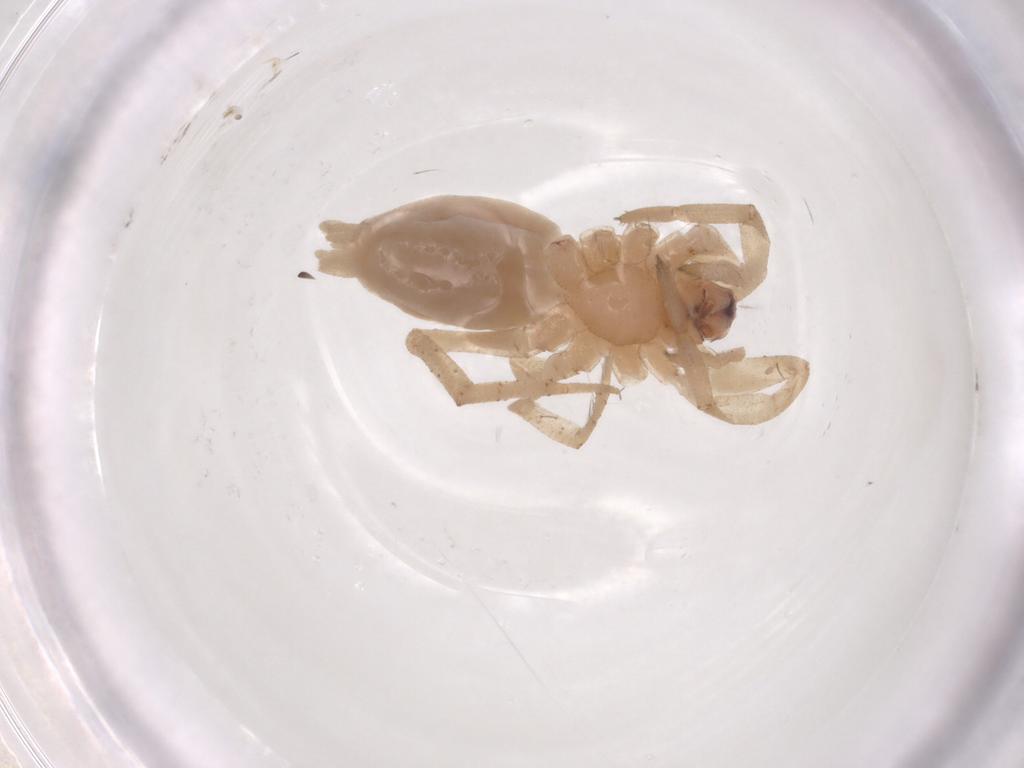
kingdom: Animalia
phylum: Arthropoda
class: Arachnida
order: Araneae
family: Gnaphosidae
